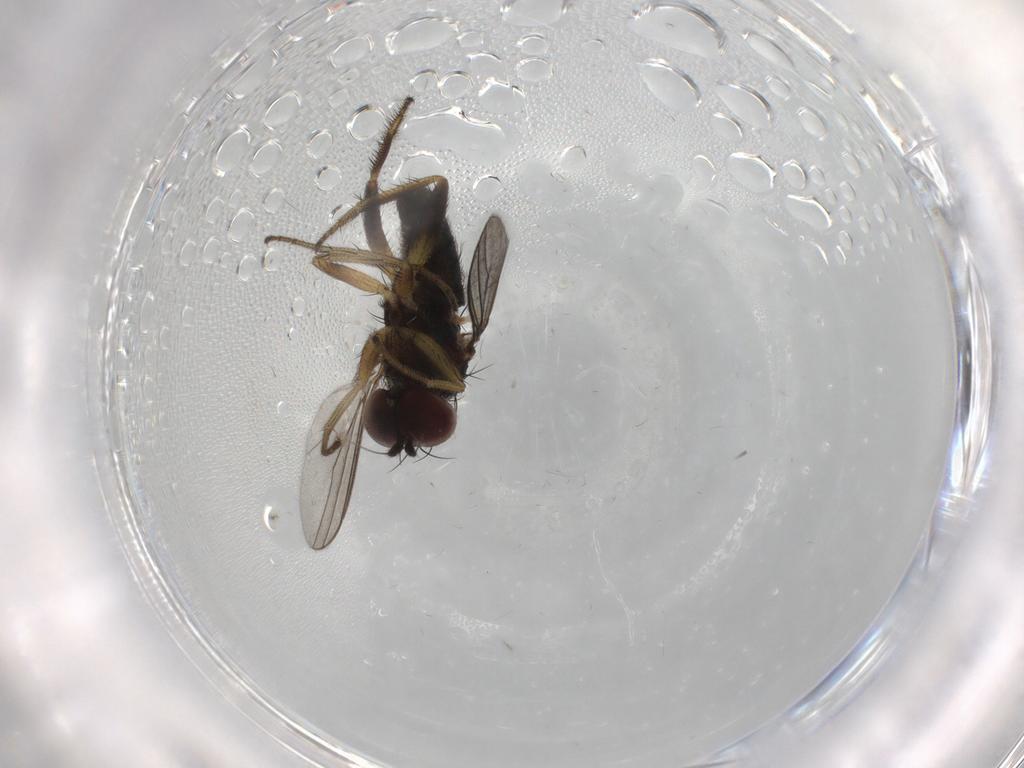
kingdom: Animalia
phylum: Arthropoda
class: Insecta
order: Diptera
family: Dolichopodidae
